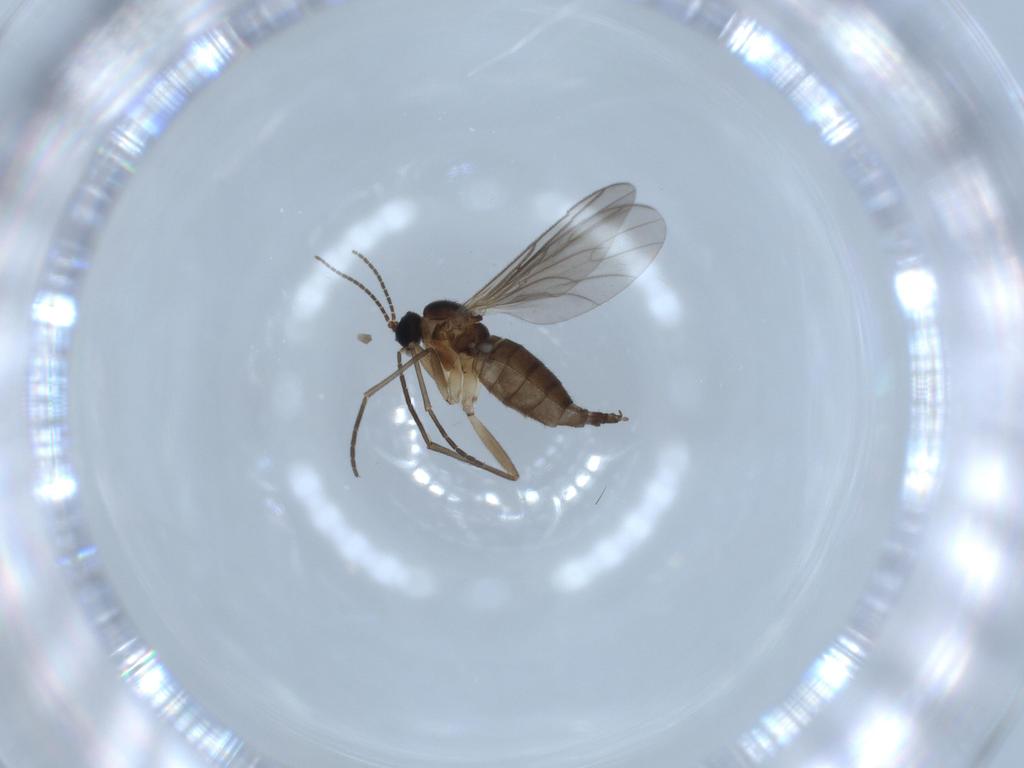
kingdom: Animalia
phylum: Arthropoda
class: Insecta
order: Diptera
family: Sciaridae
